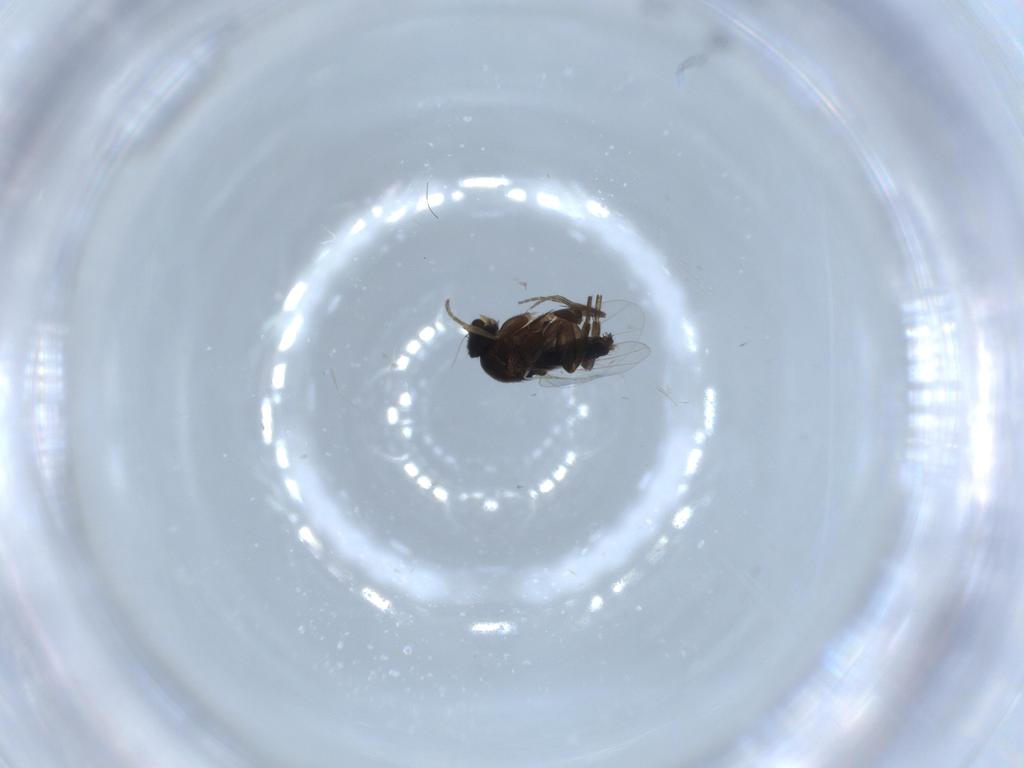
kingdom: Animalia
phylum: Arthropoda
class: Insecta
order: Diptera
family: Phoridae
